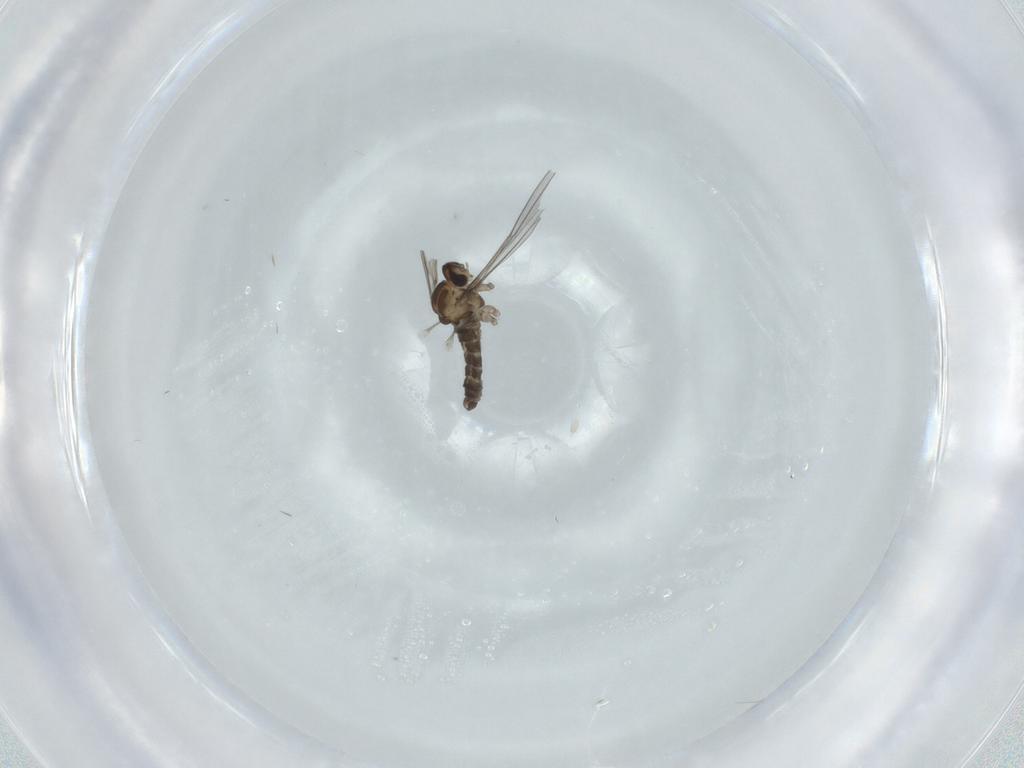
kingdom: Animalia
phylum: Arthropoda
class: Insecta
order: Diptera
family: Cecidomyiidae
